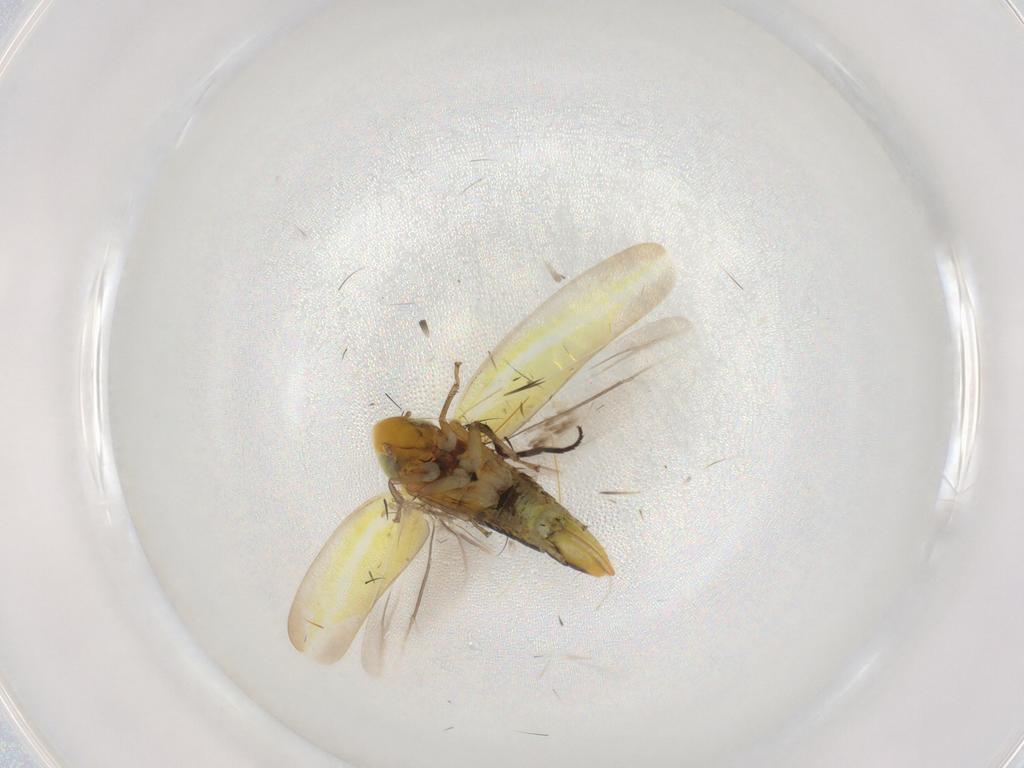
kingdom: Animalia
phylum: Arthropoda
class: Insecta
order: Hemiptera
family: Cicadellidae
